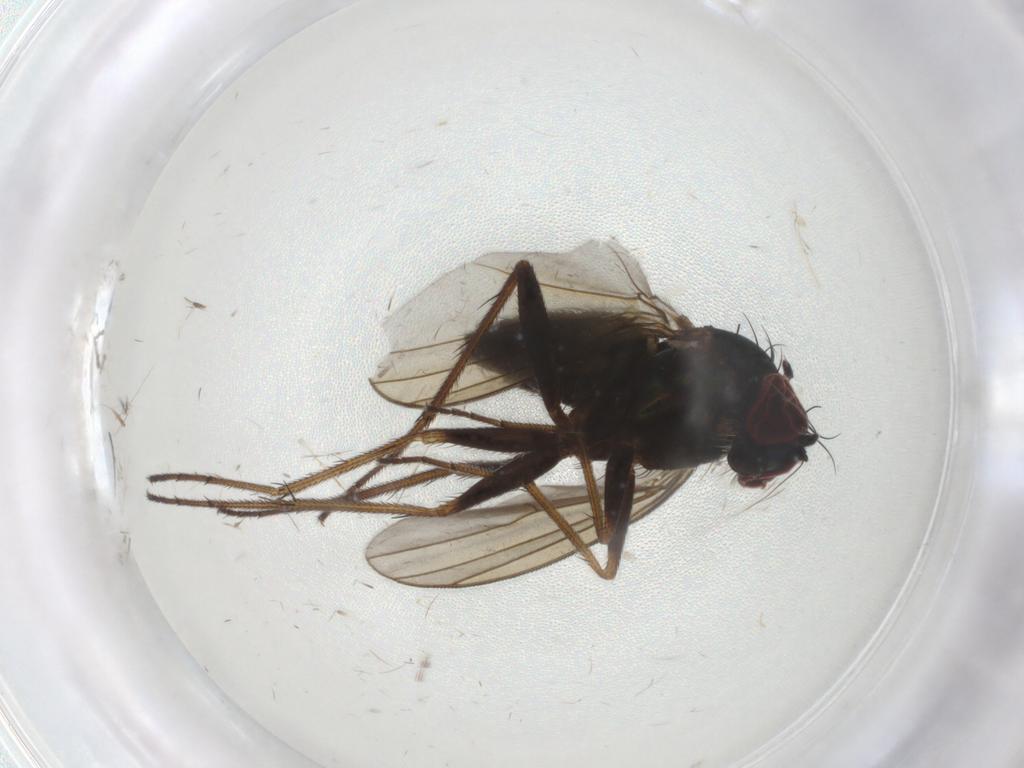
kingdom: Animalia
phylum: Arthropoda
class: Insecta
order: Diptera
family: Dolichopodidae
